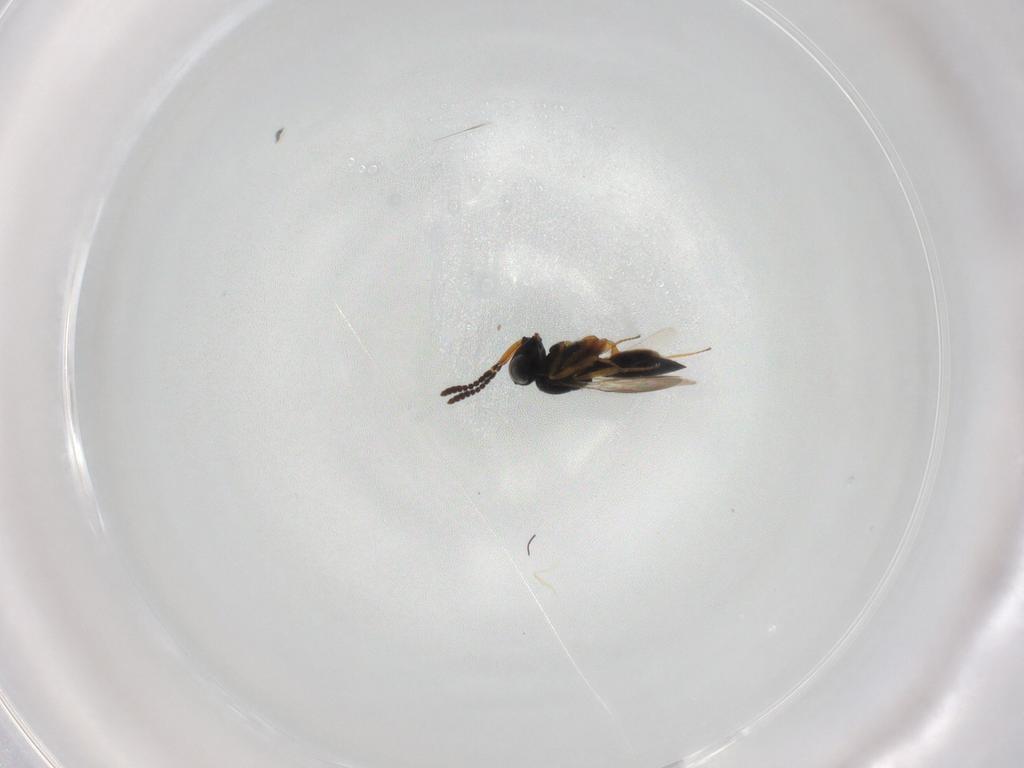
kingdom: Animalia
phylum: Arthropoda
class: Insecta
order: Hymenoptera
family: Scelionidae
